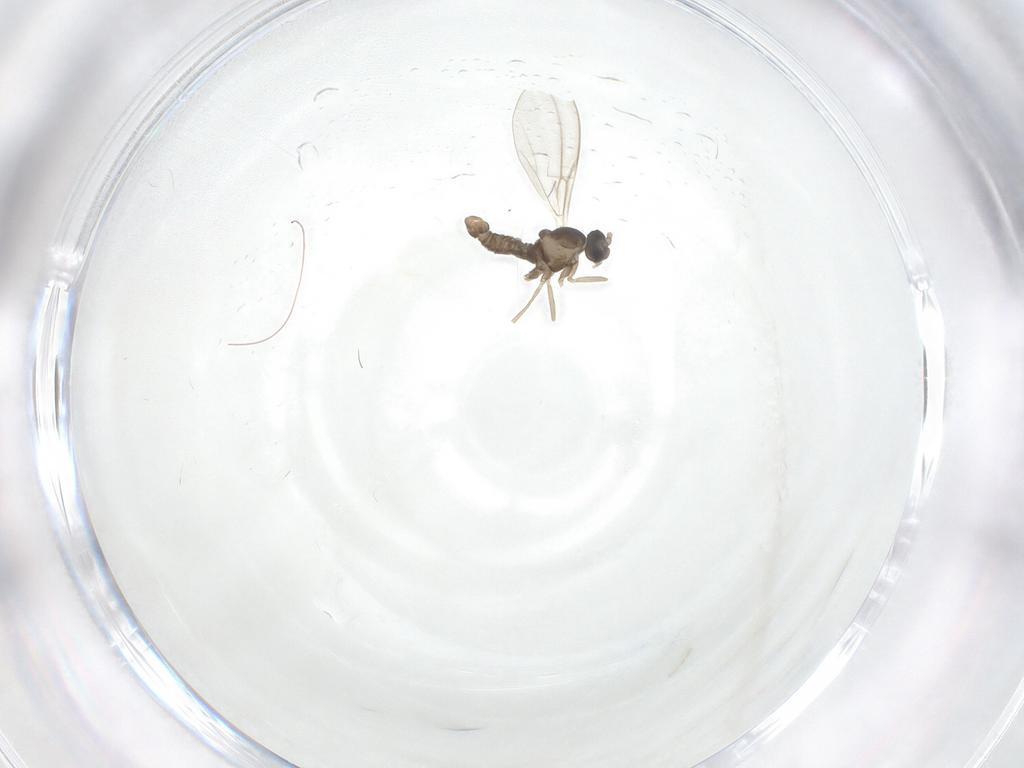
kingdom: Animalia
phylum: Arthropoda
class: Insecta
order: Diptera
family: Cecidomyiidae
